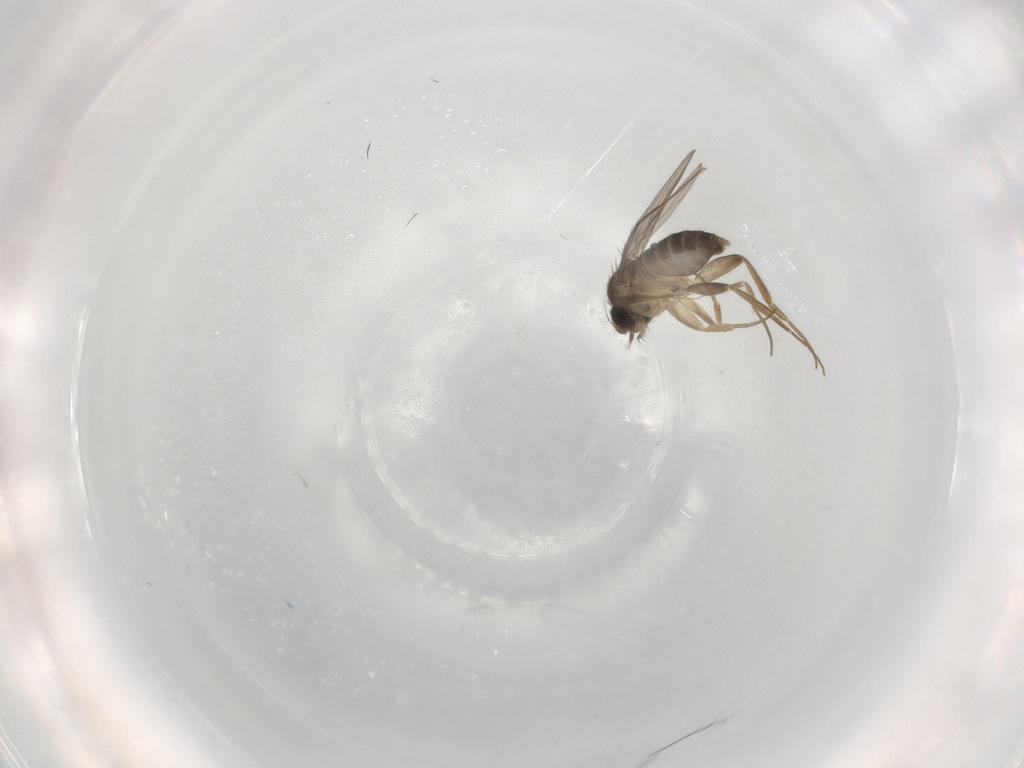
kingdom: Animalia
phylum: Arthropoda
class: Insecta
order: Diptera
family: Phoridae
